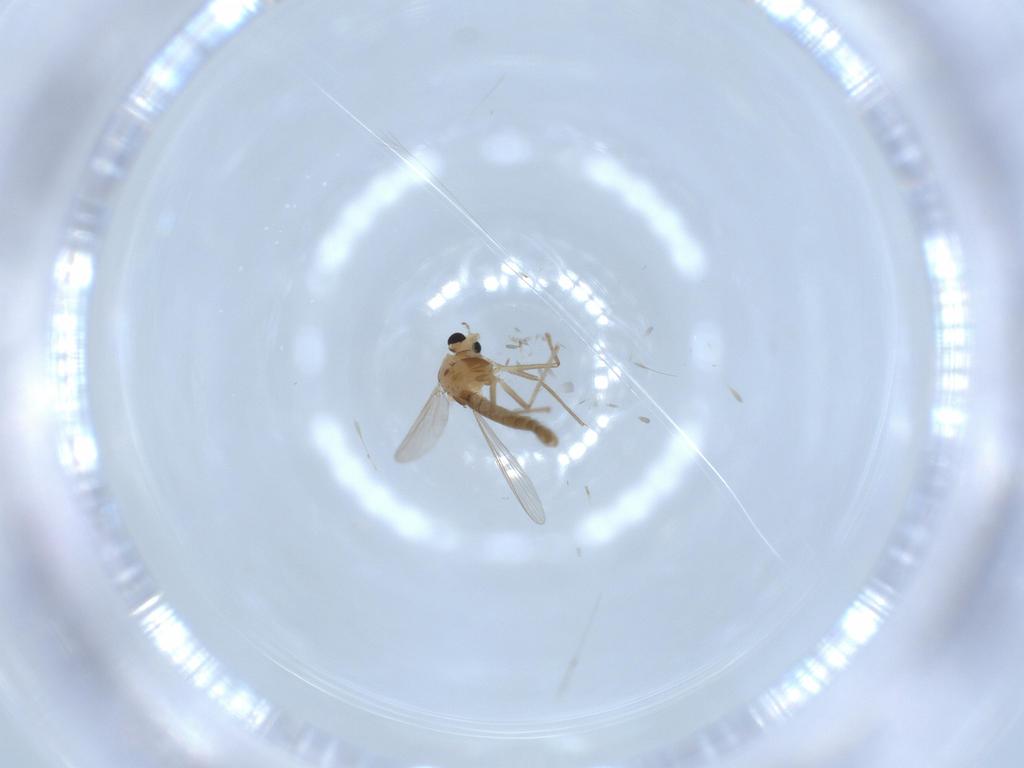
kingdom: Animalia
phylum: Arthropoda
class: Insecta
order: Diptera
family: Chironomidae
